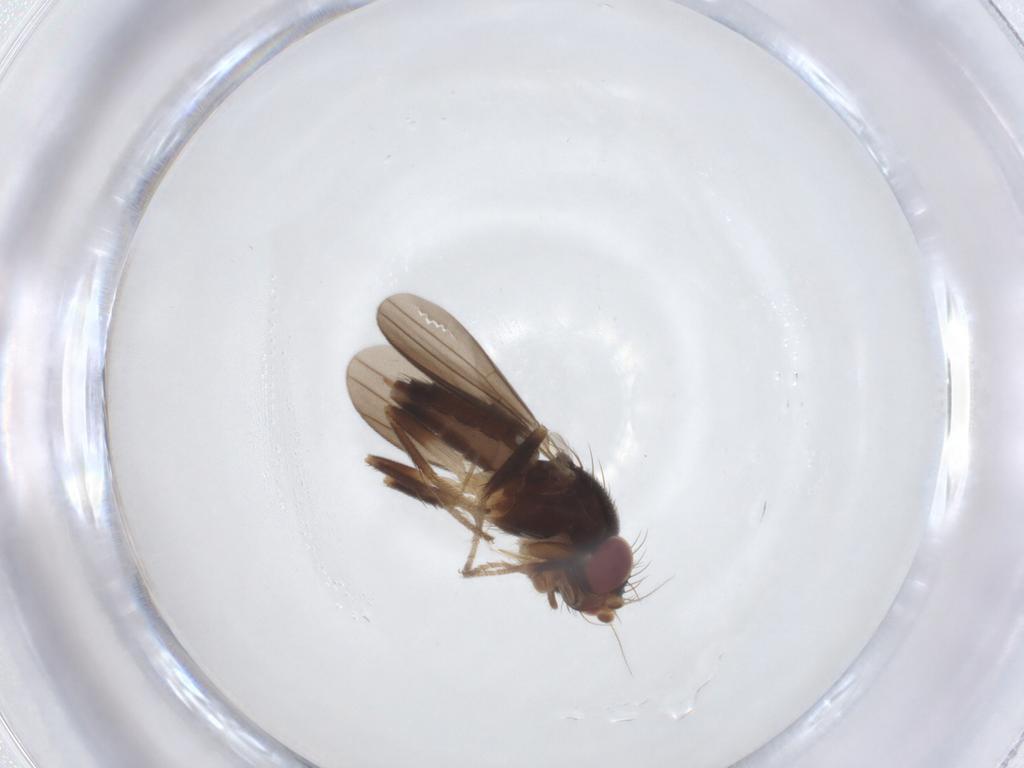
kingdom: Animalia
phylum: Arthropoda
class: Insecta
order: Diptera
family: Clusiidae
